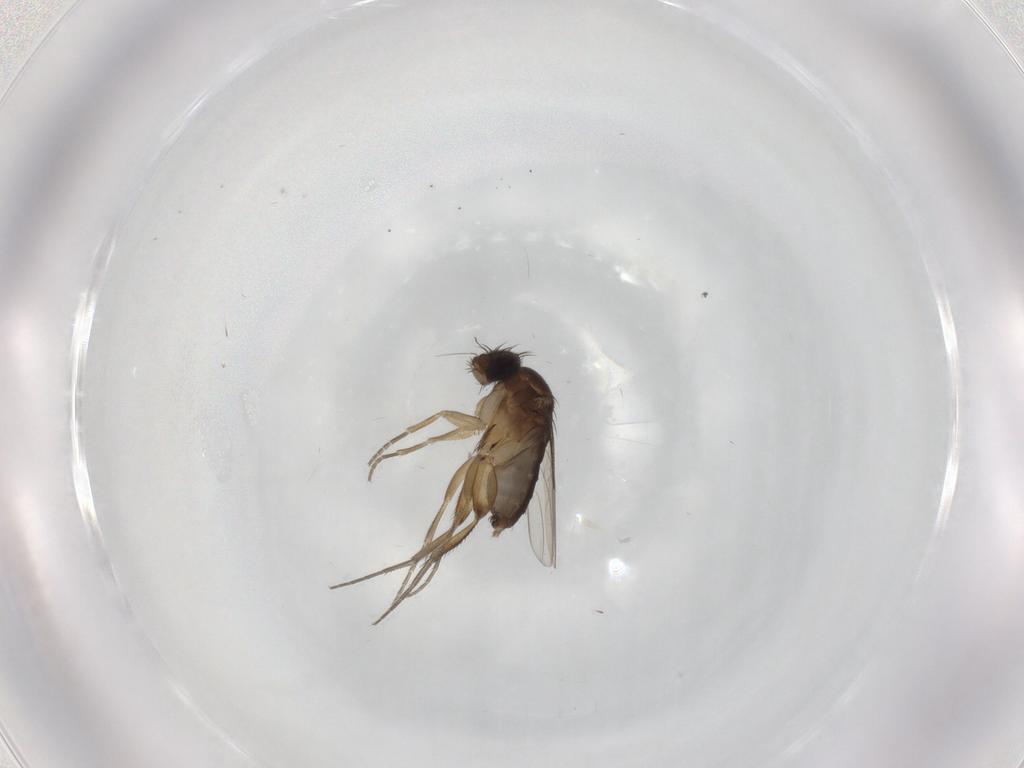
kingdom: Animalia
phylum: Arthropoda
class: Insecta
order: Diptera
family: Phoridae
